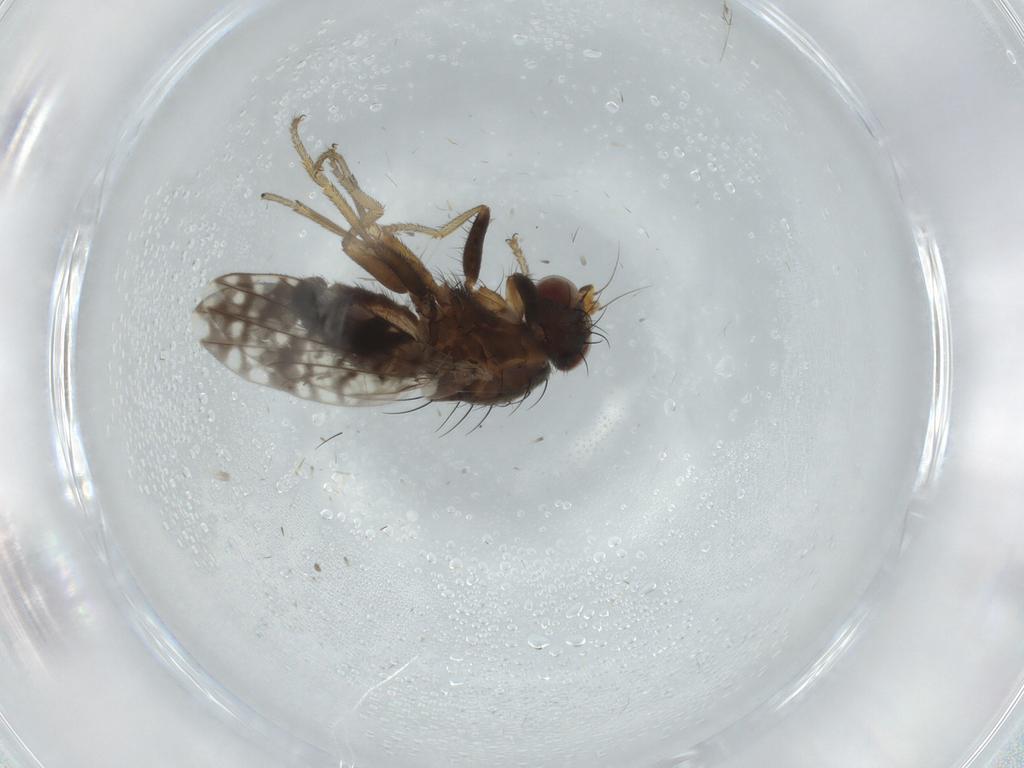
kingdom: Animalia
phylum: Arthropoda
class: Insecta
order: Diptera
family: Tephritidae
